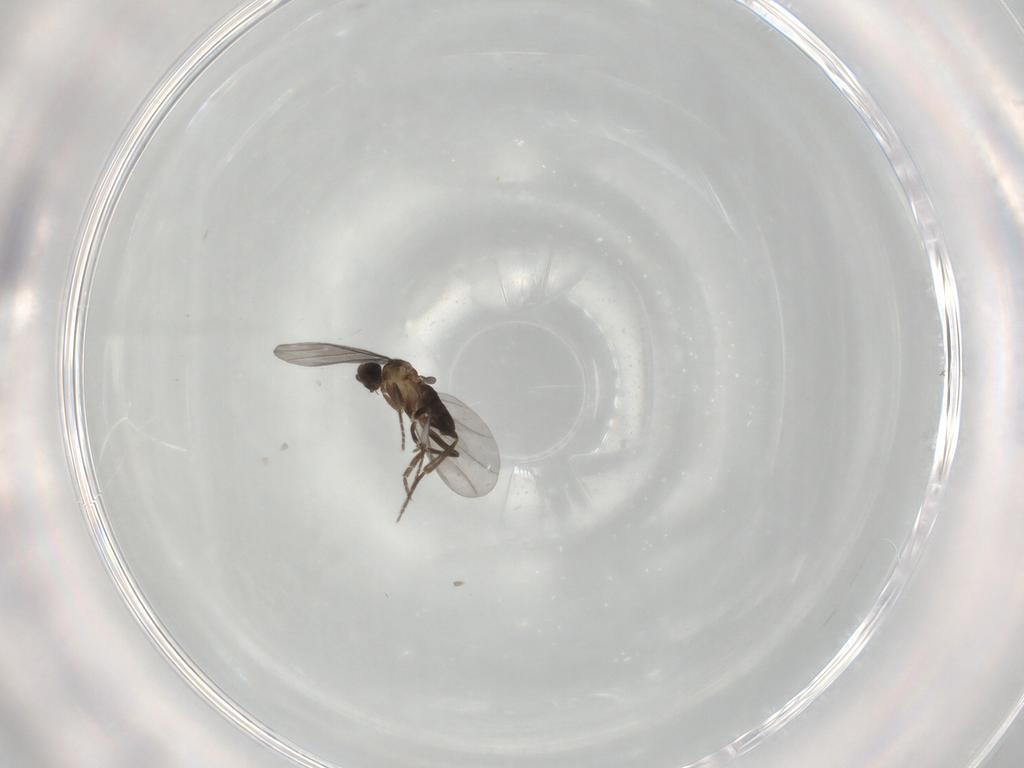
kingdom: Animalia
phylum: Arthropoda
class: Insecta
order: Diptera
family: Phoridae
